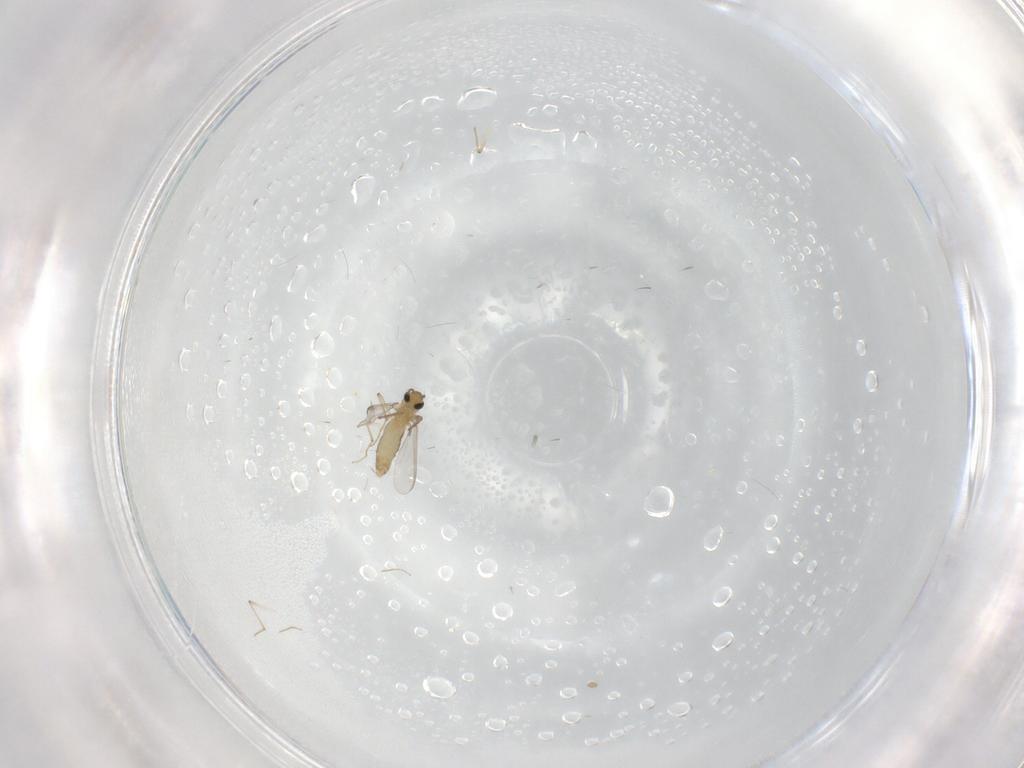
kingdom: Animalia
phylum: Arthropoda
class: Insecta
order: Diptera
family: Chironomidae
